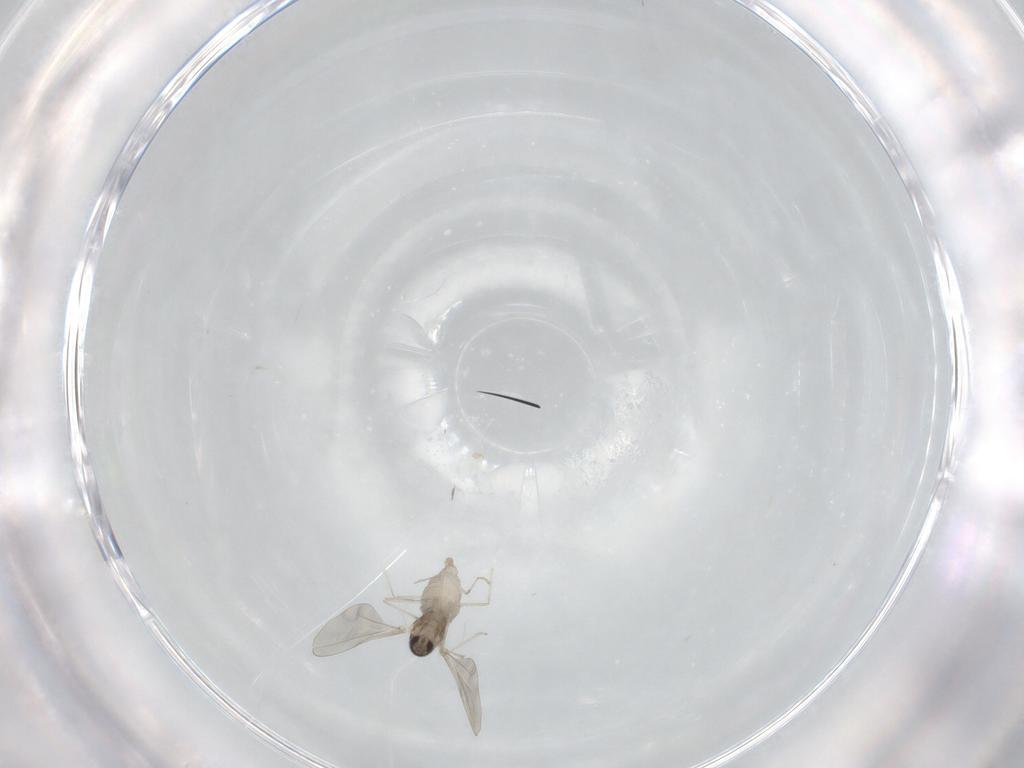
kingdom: Animalia
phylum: Arthropoda
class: Insecta
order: Diptera
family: Cecidomyiidae
